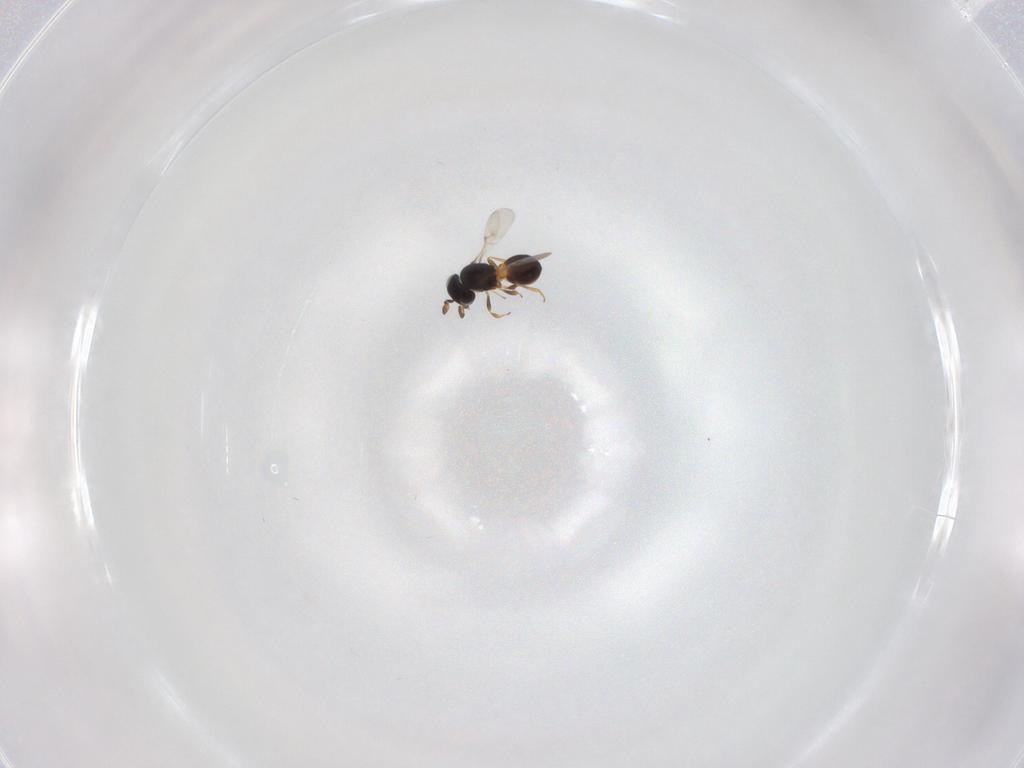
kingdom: Animalia
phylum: Arthropoda
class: Insecta
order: Hymenoptera
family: Scelionidae
